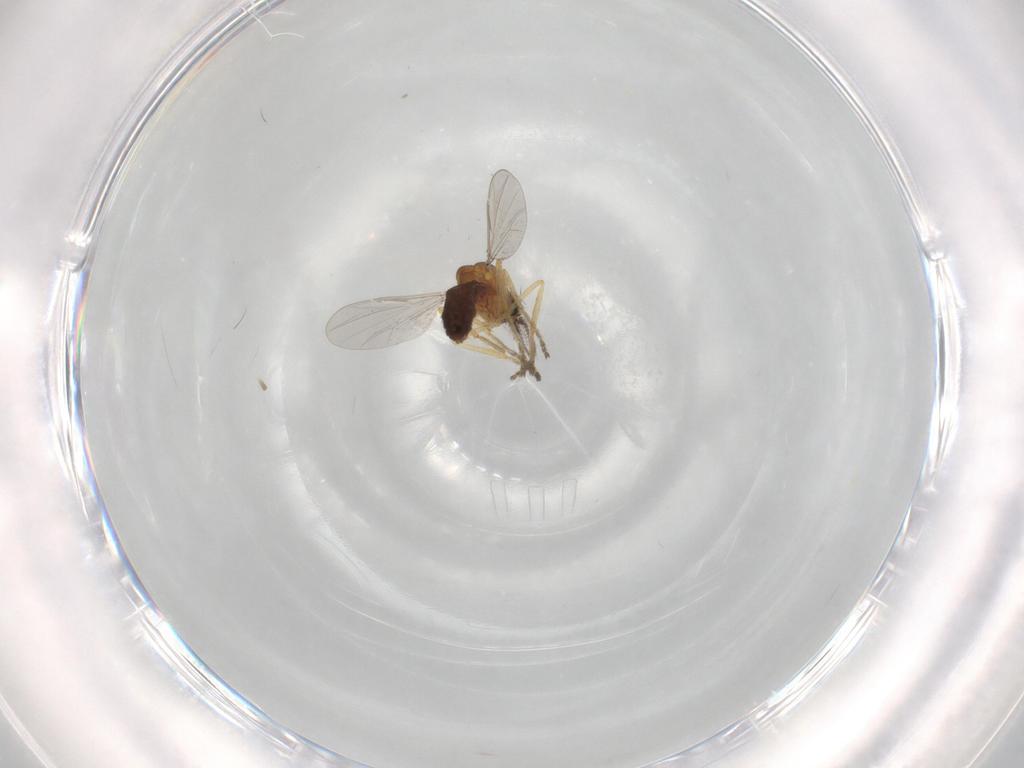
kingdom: Animalia
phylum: Arthropoda
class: Insecta
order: Diptera
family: Ceratopogonidae
